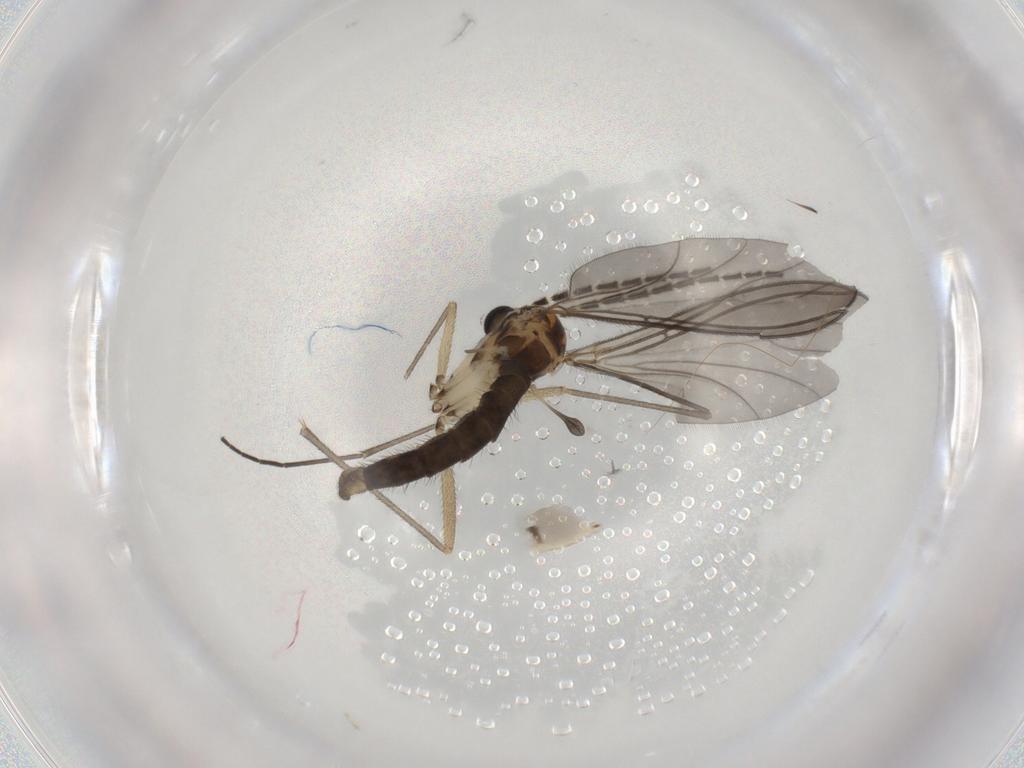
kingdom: Animalia
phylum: Arthropoda
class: Insecta
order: Diptera
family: Sciaridae
